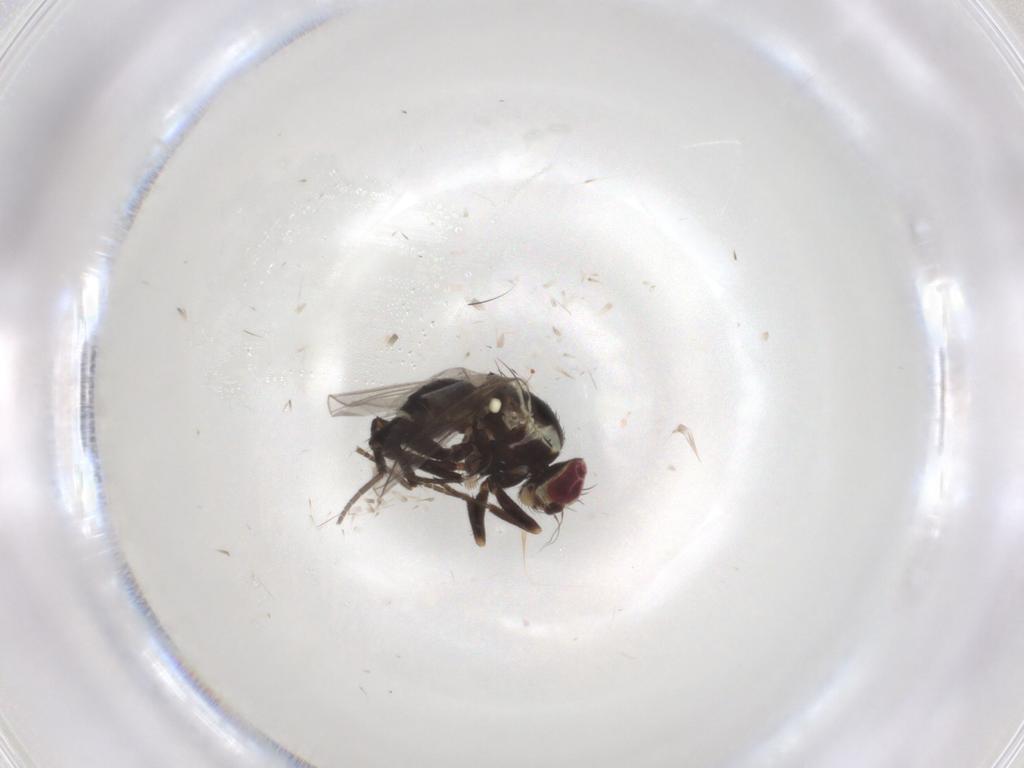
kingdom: Animalia
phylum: Arthropoda
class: Insecta
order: Diptera
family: Agromyzidae
